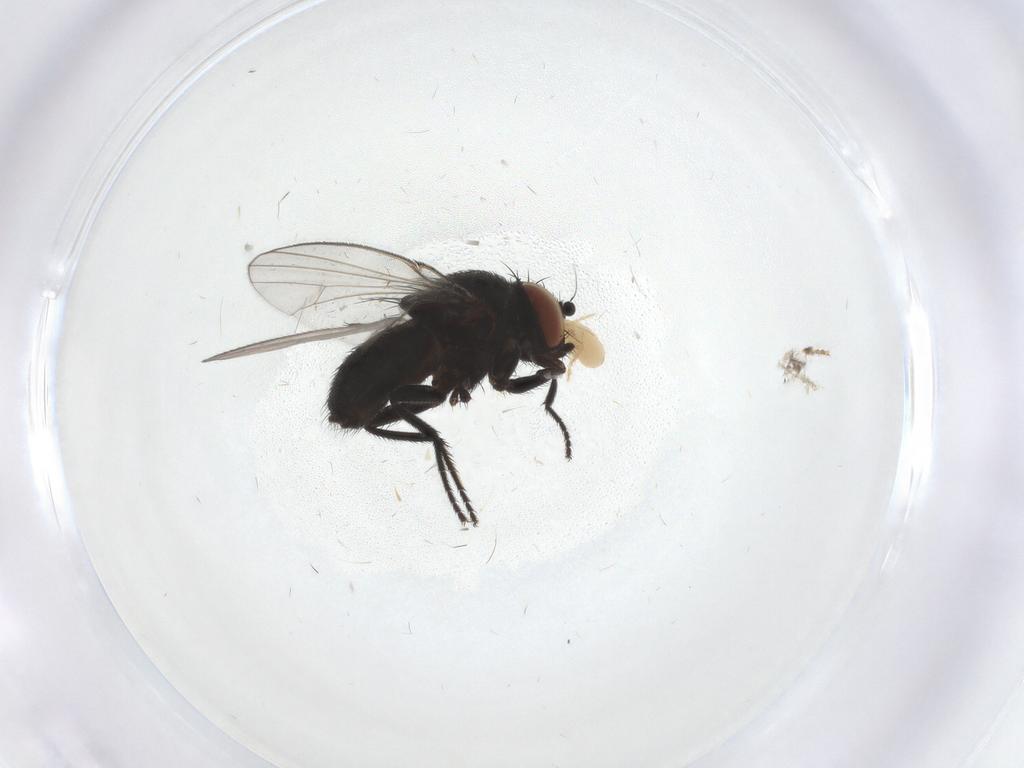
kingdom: Animalia
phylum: Arthropoda
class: Insecta
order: Diptera
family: Milichiidae
